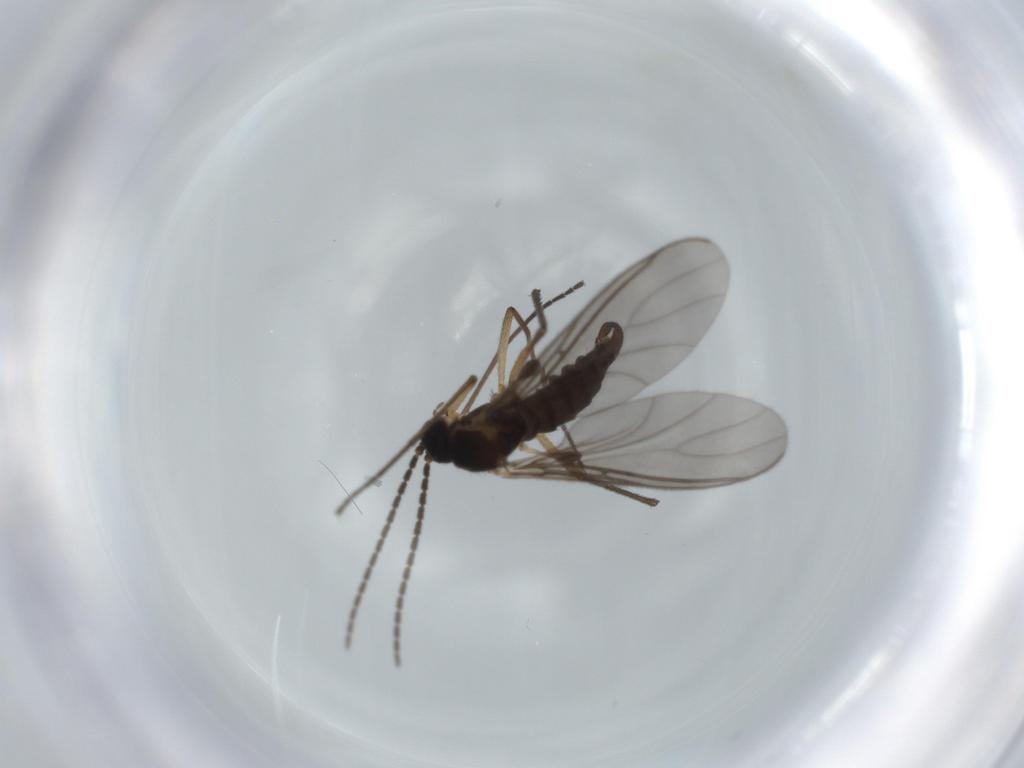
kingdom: Animalia
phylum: Arthropoda
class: Insecta
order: Diptera
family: Sciaridae
